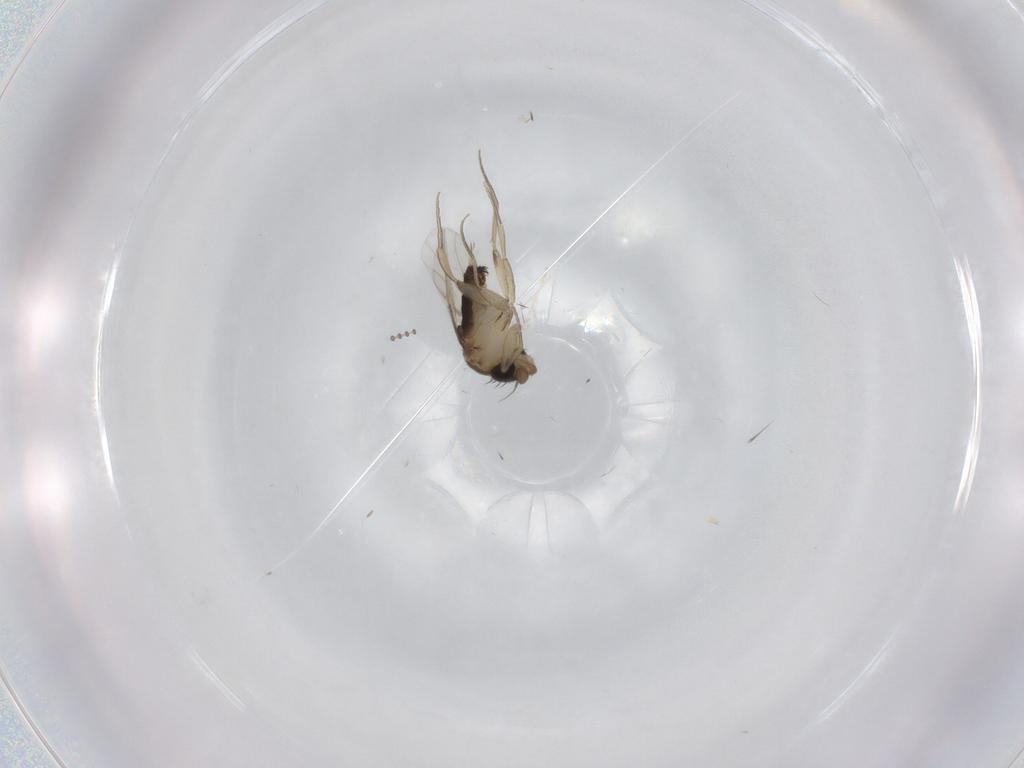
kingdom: Animalia
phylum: Arthropoda
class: Insecta
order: Diptera
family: Phoridae
